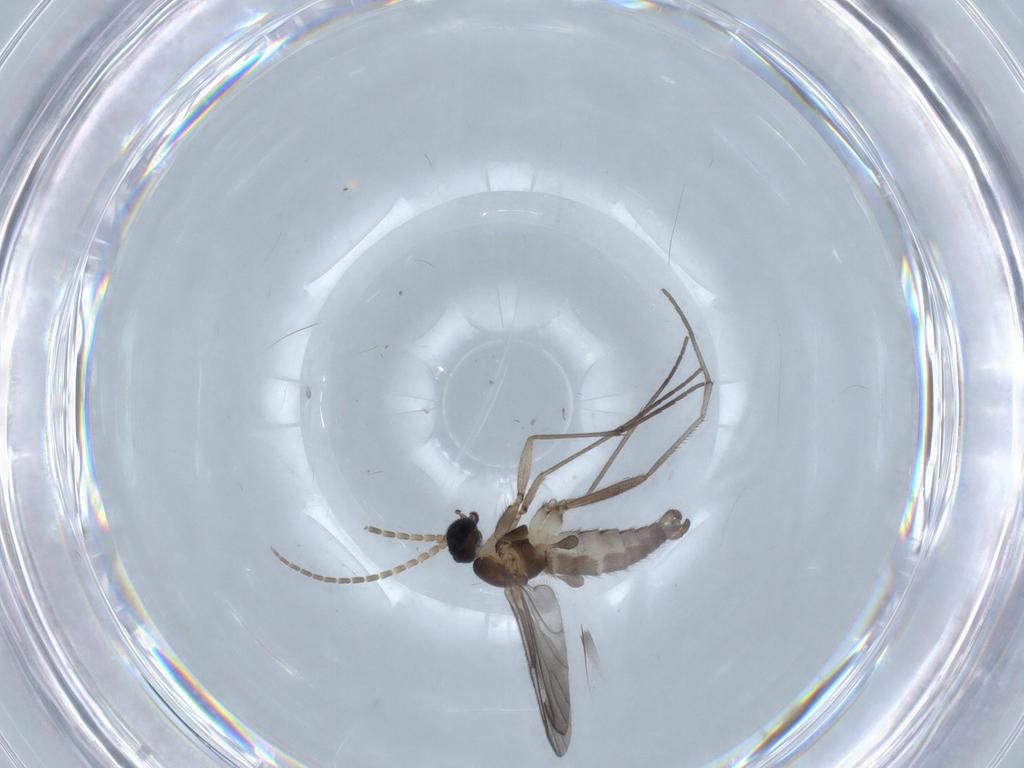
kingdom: Animalia
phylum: Arthropoda
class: Insecta
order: Diptera
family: Sciaridae
